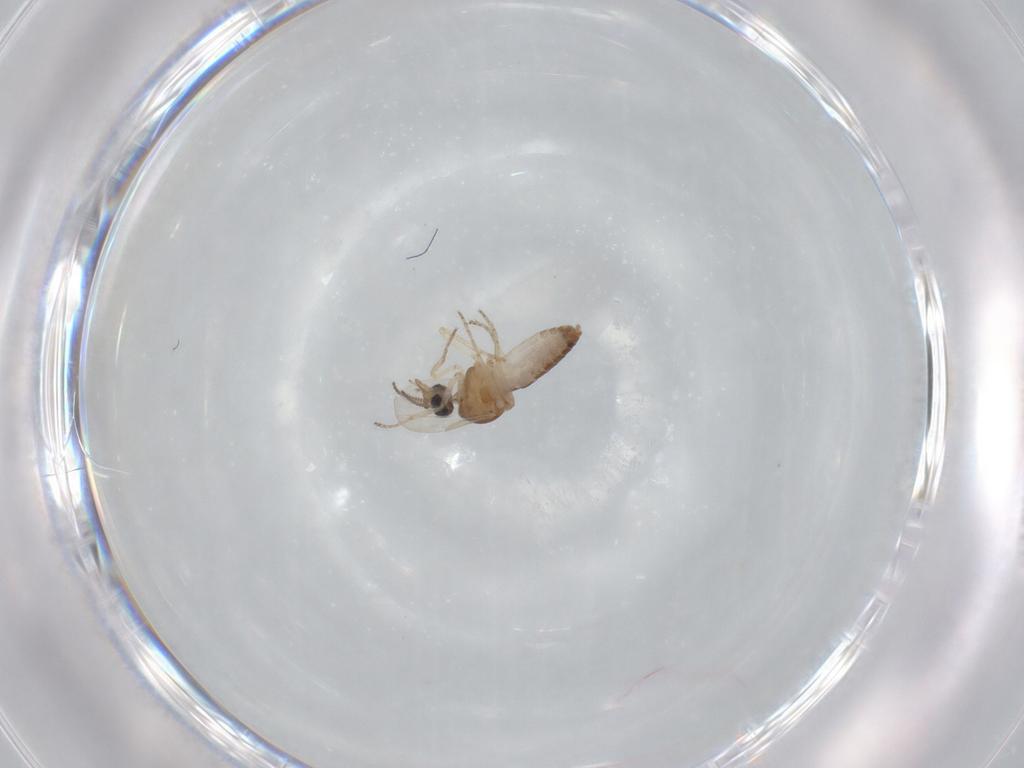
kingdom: Animalia
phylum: Arthropoda
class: Insecta
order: Diptera
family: Ceratopogonidae
